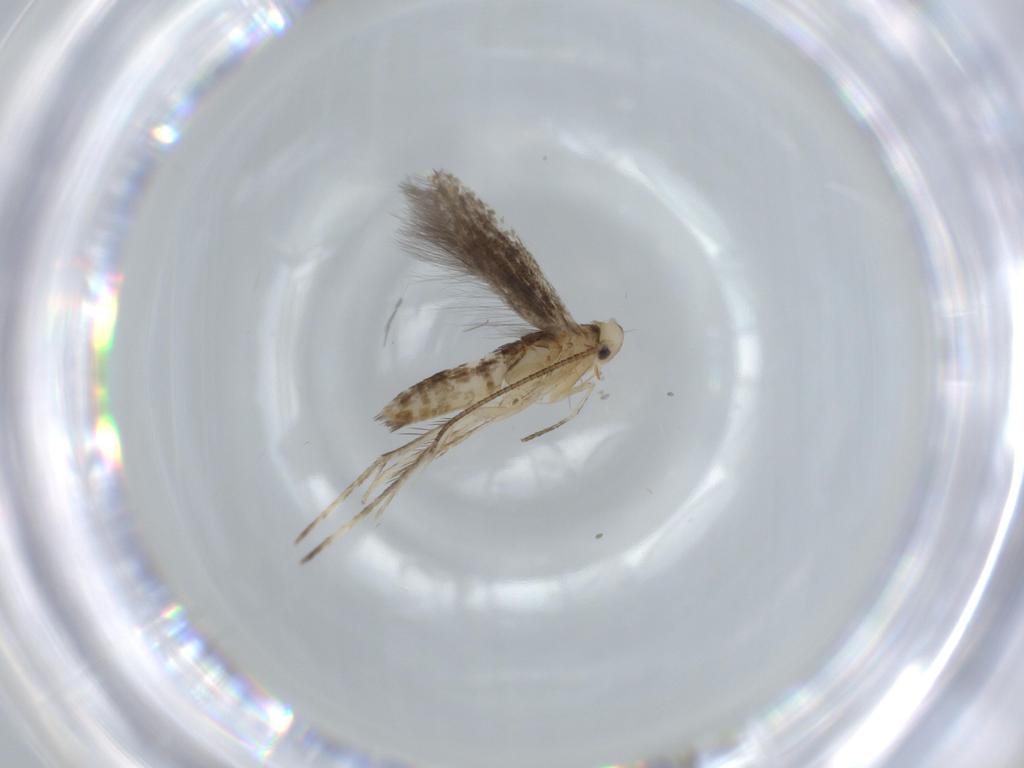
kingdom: Animalia
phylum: Arthropoda
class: Insecta
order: Lepidoptera
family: Nepticulidae
